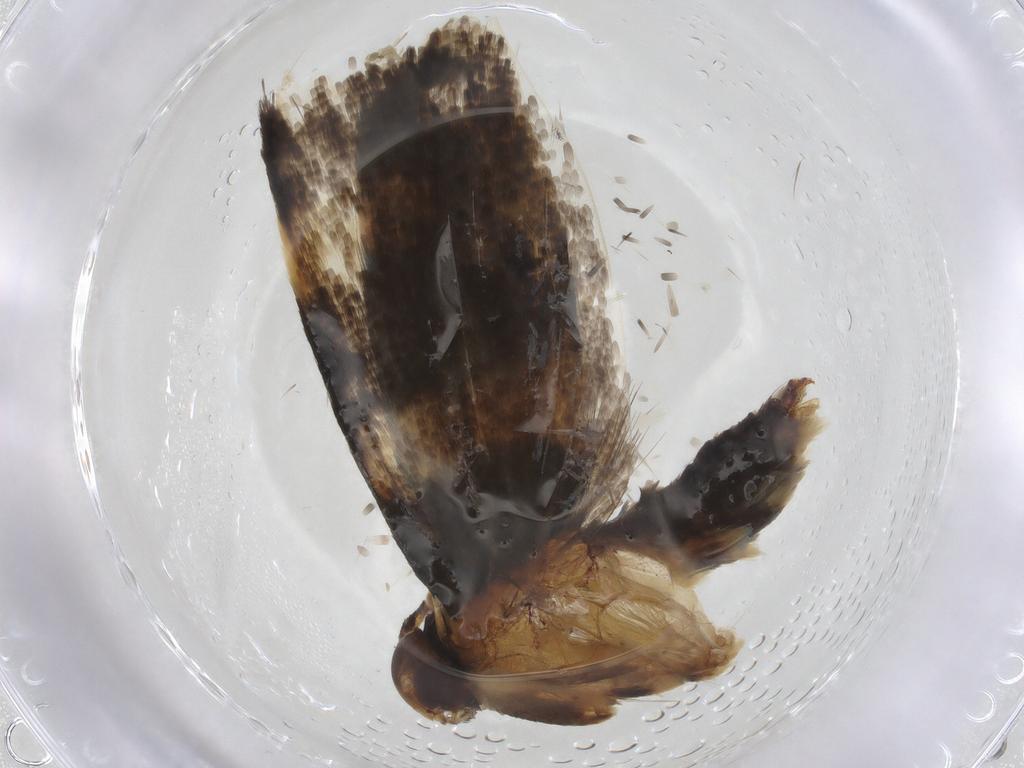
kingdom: Animalia
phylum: Arthropoda
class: Insecta
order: Lepidoptera
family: Cosmopterigidae
